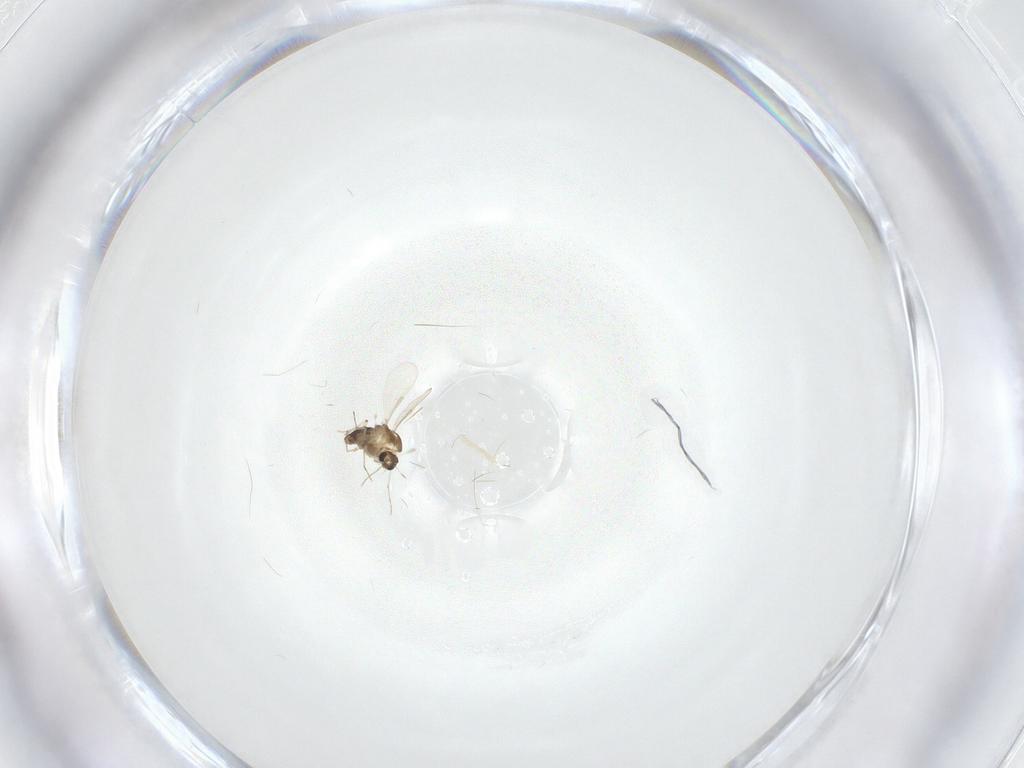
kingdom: Animalia
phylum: Arthropoda
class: Insecta
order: Diptera
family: Chironomidae
